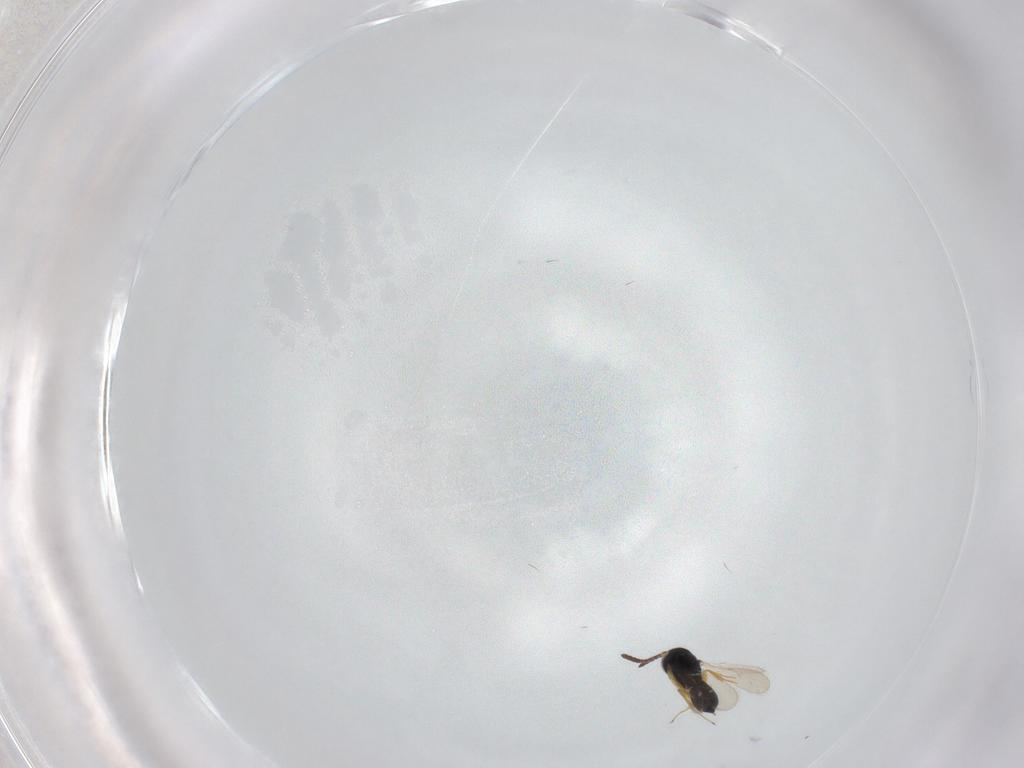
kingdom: Animalia
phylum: Arthropoda
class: Insecta
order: Hymenoptera
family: Scelionidae
